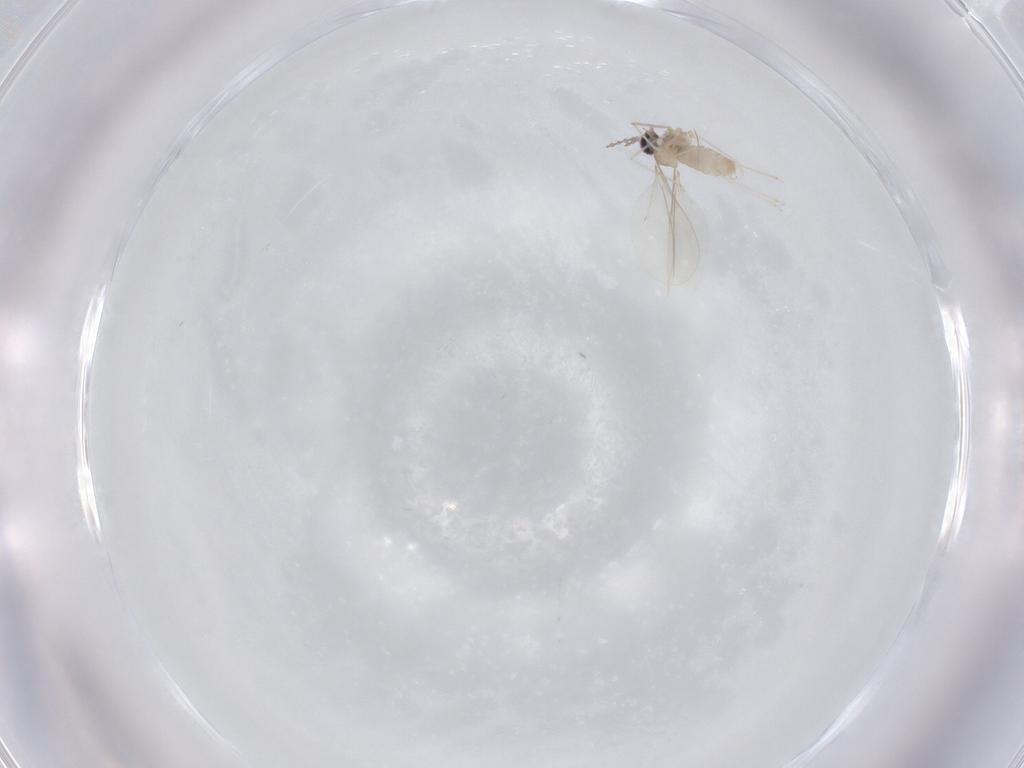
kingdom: Animalia
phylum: Arthropoda
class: Insecta
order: Diptera
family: Cecidomyiidae
